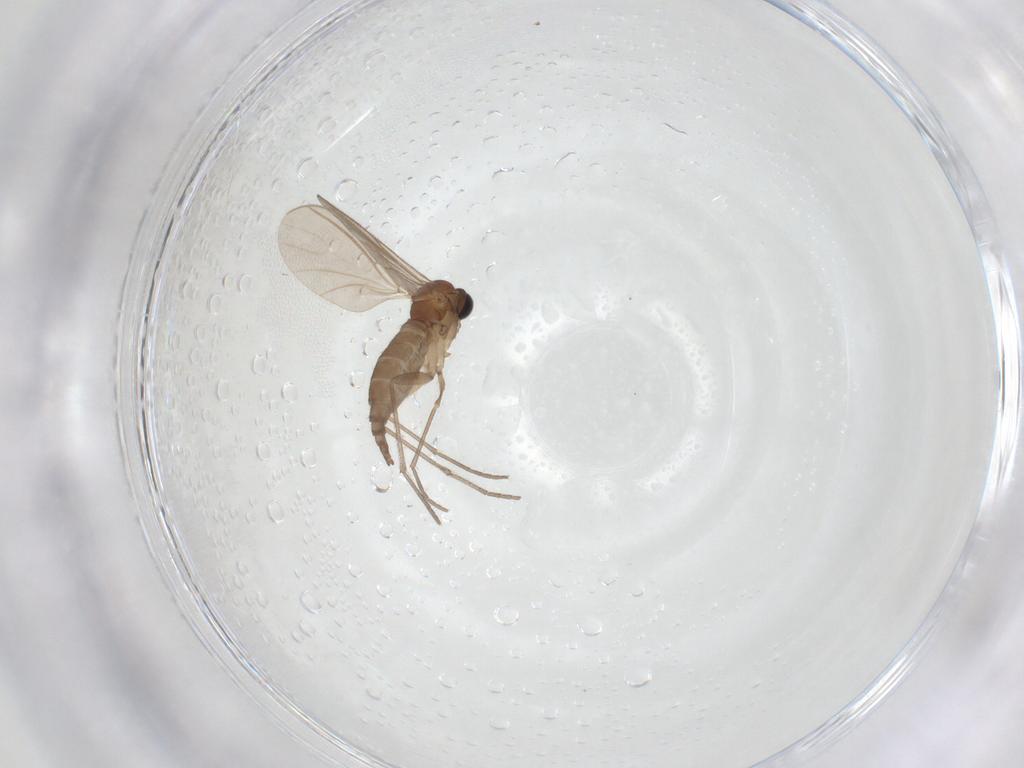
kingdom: Animalia
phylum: Arthropoda
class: Insecta
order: Diptera
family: Sciaridae
